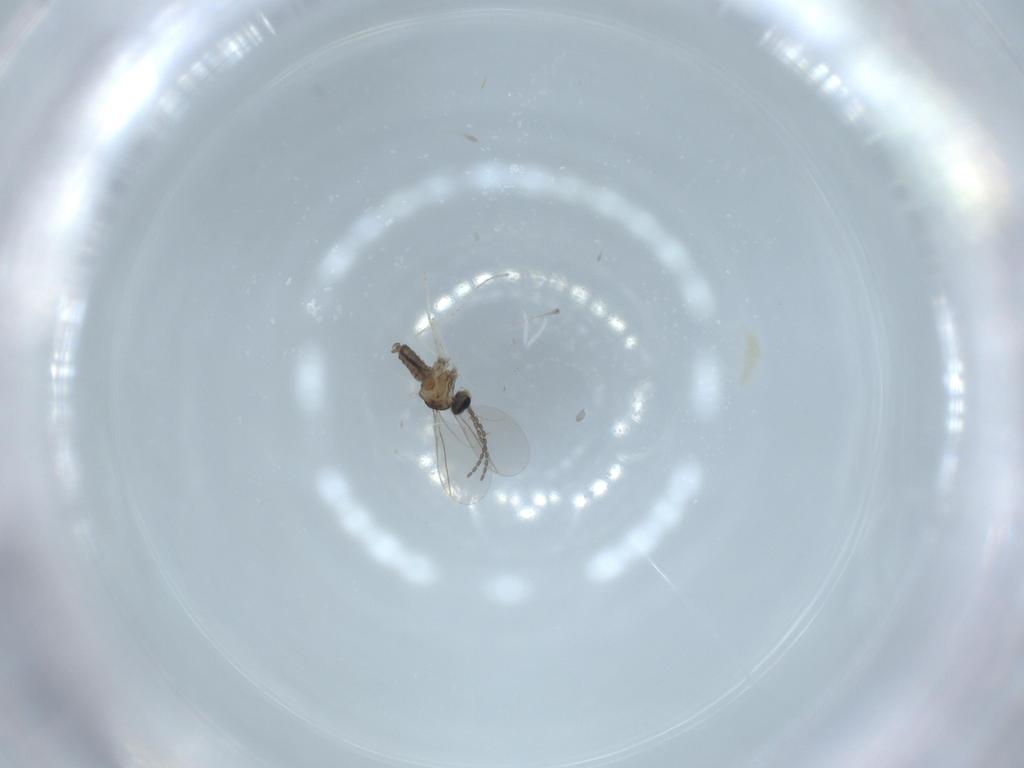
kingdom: Animalia
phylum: Arthropoda
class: Insecta
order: Diptera
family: Cecidomyiidae
